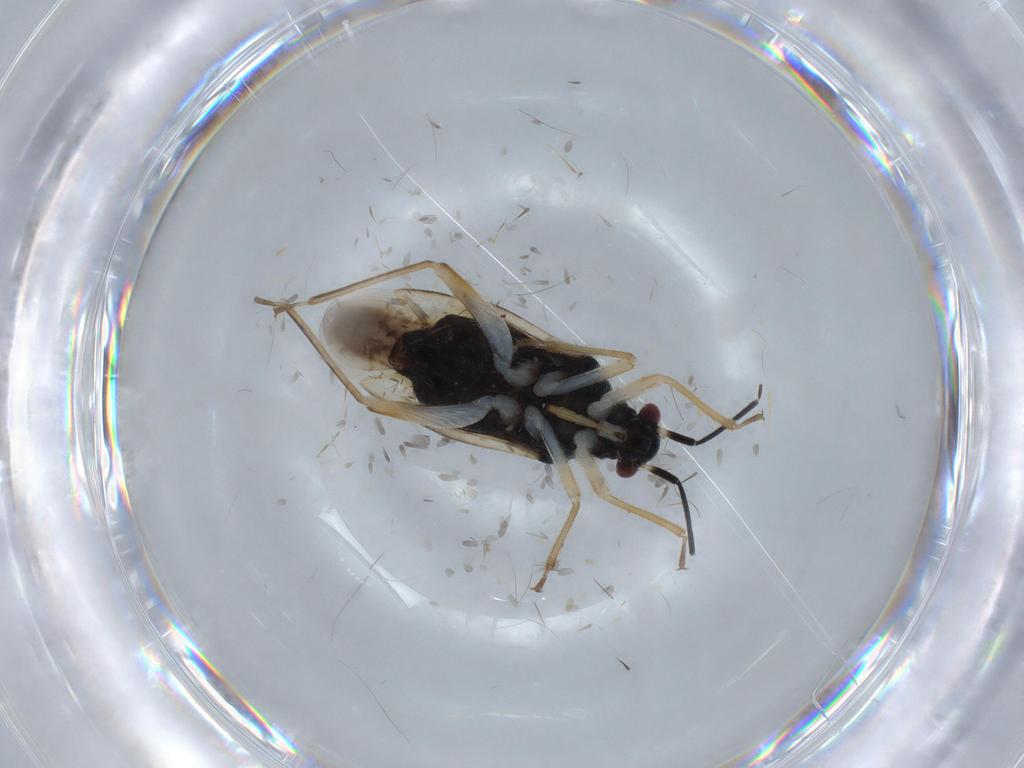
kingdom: Animalia
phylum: Arthropoda
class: Insecta
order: Hemiptera
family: Miridae
